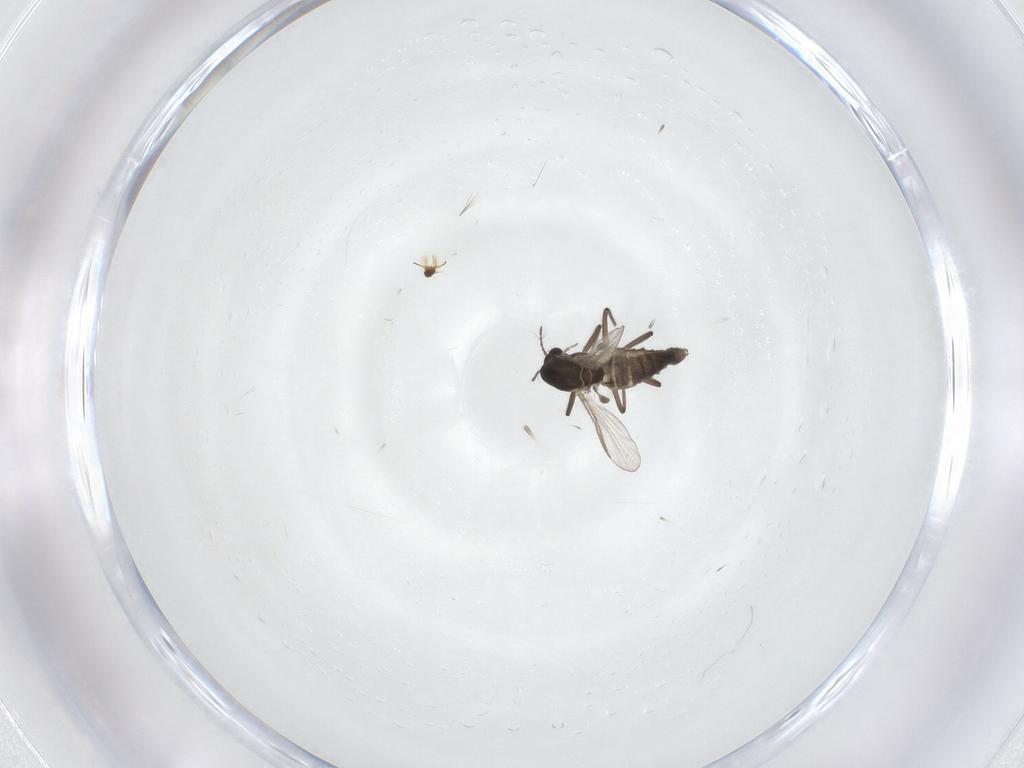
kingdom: Animalia
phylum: Arthropoda
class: Insecta
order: Diptera
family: Chironomidae
